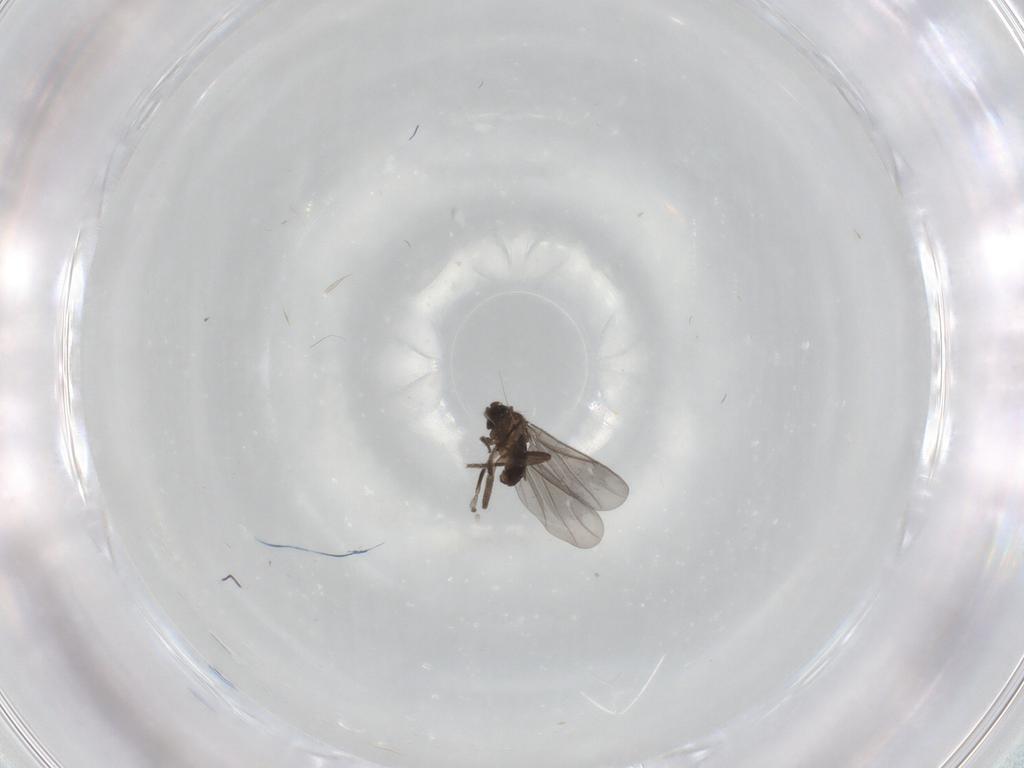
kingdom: Animalia
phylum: Arthropoda
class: Insecta
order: Diptera
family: Phoridae
